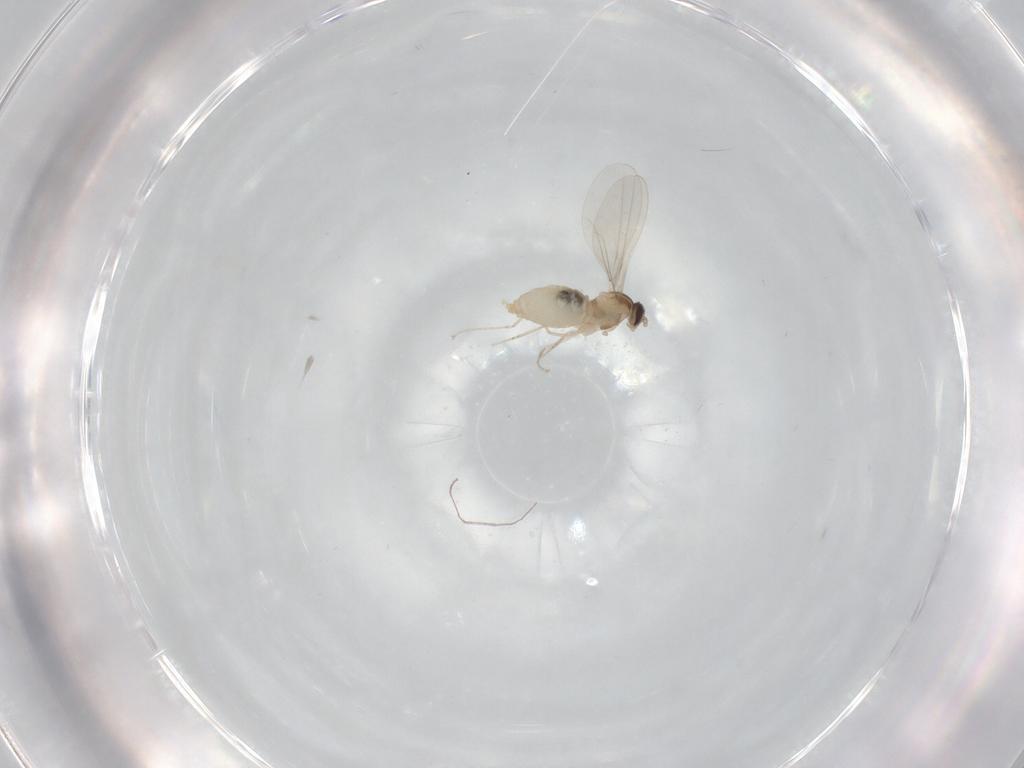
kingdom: Animalia
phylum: Arthropoda
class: Insecta
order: Diptera
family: Cecidomyiidae
